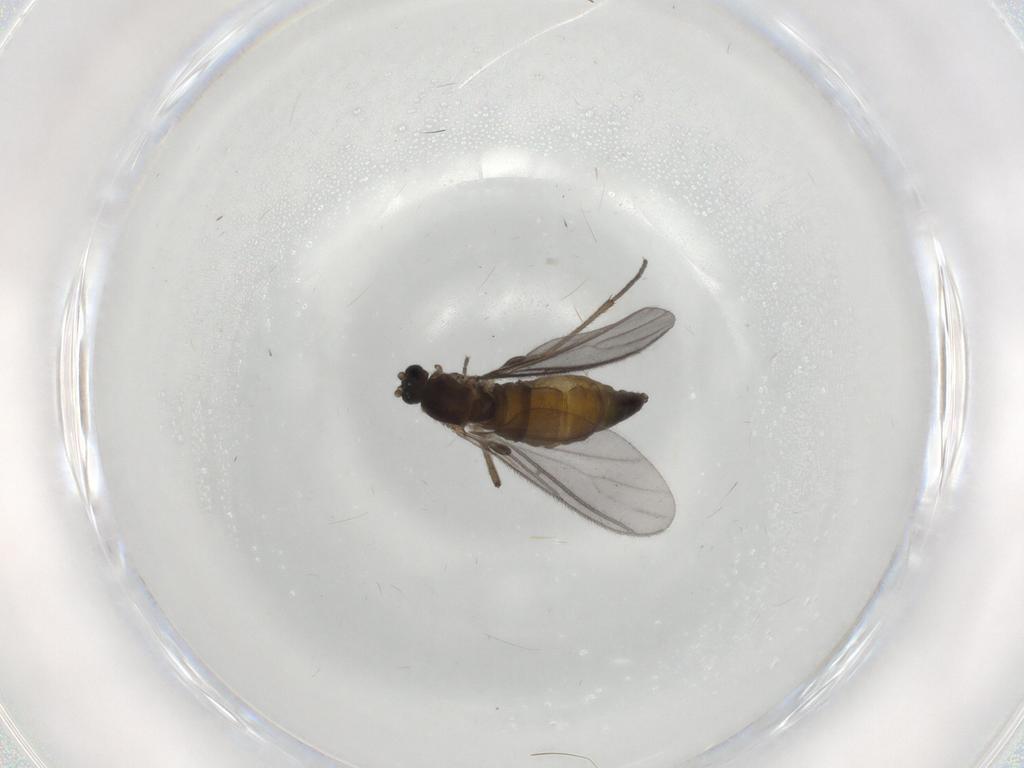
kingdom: Animalia
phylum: Arthropoda
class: Insecta
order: Diptera
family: Sciaridae
